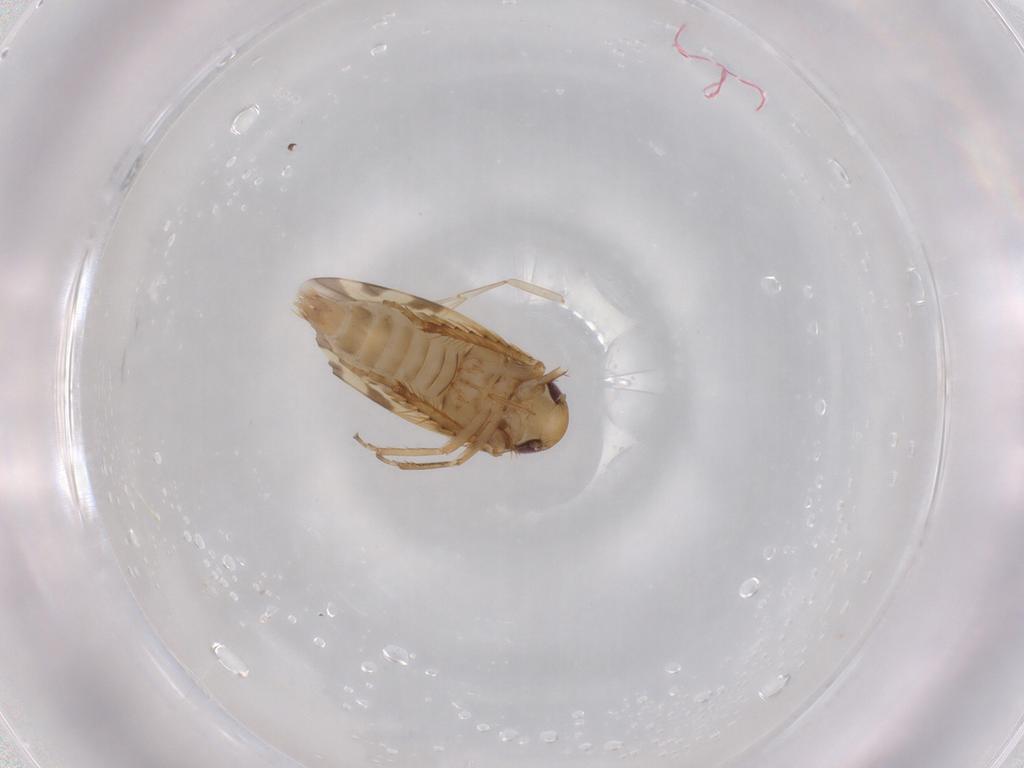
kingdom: Animalia
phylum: Arthropoda
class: Insecta
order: Hemiptera
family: Cicadellidae
